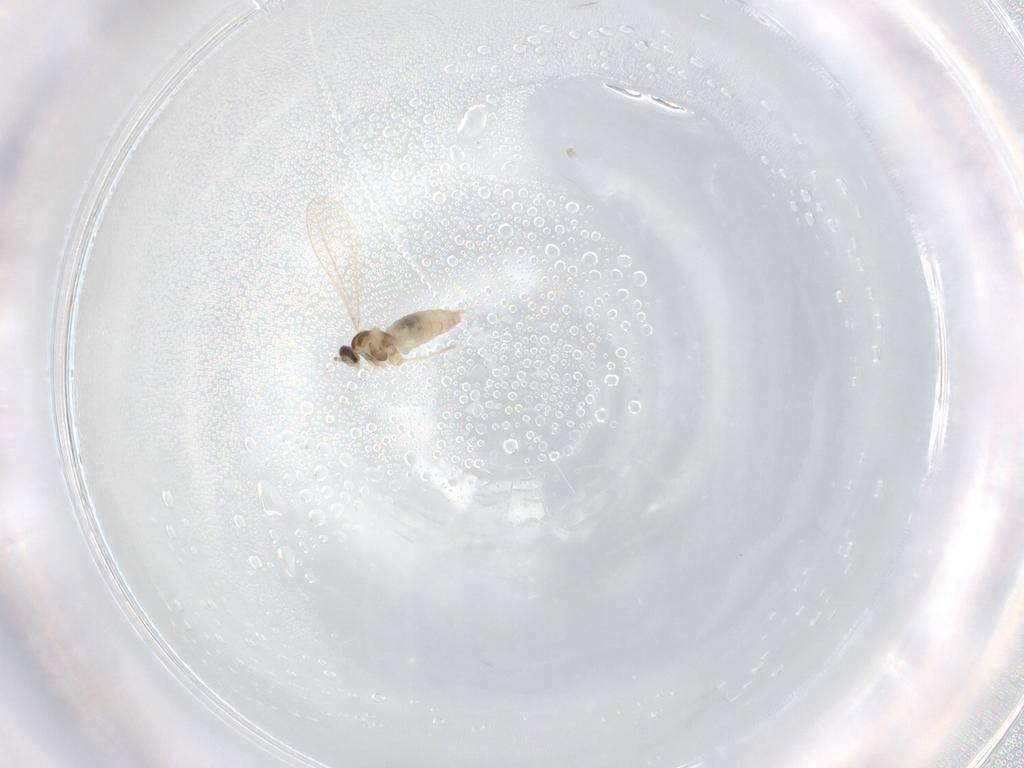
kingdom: Animalia
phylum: Arthropoda
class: Insecta
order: Diptera
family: Cecidomyiidae
